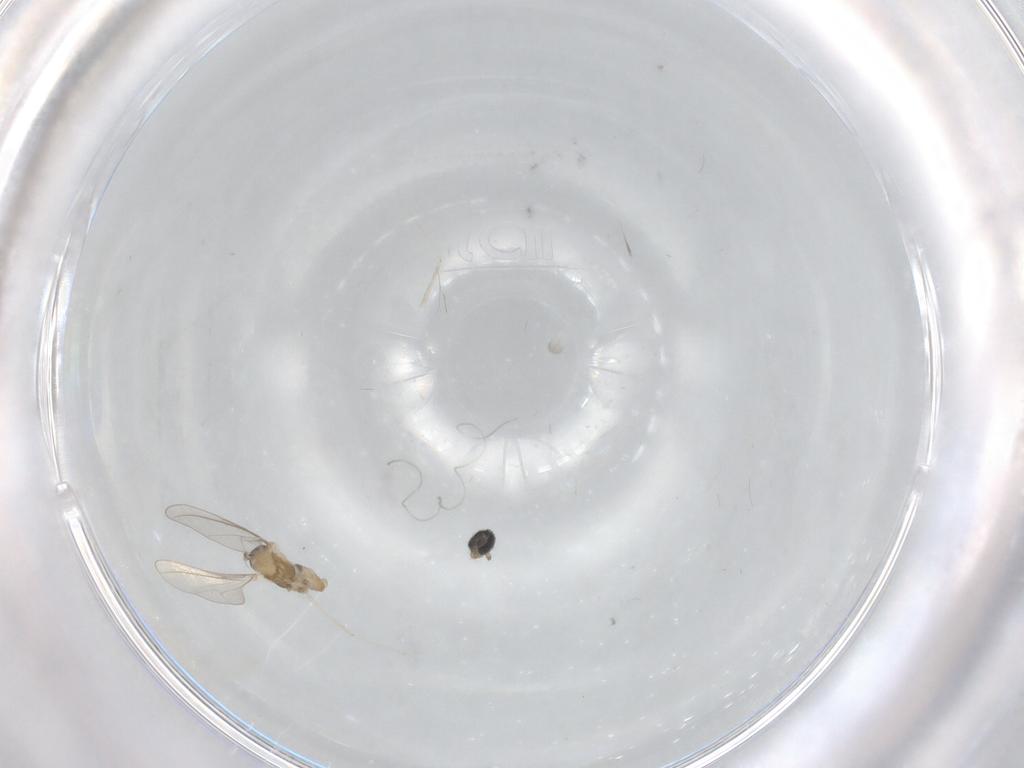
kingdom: Animalia
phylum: Arthropoda
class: Insecta
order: Diptera
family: Cecidomyiidae
